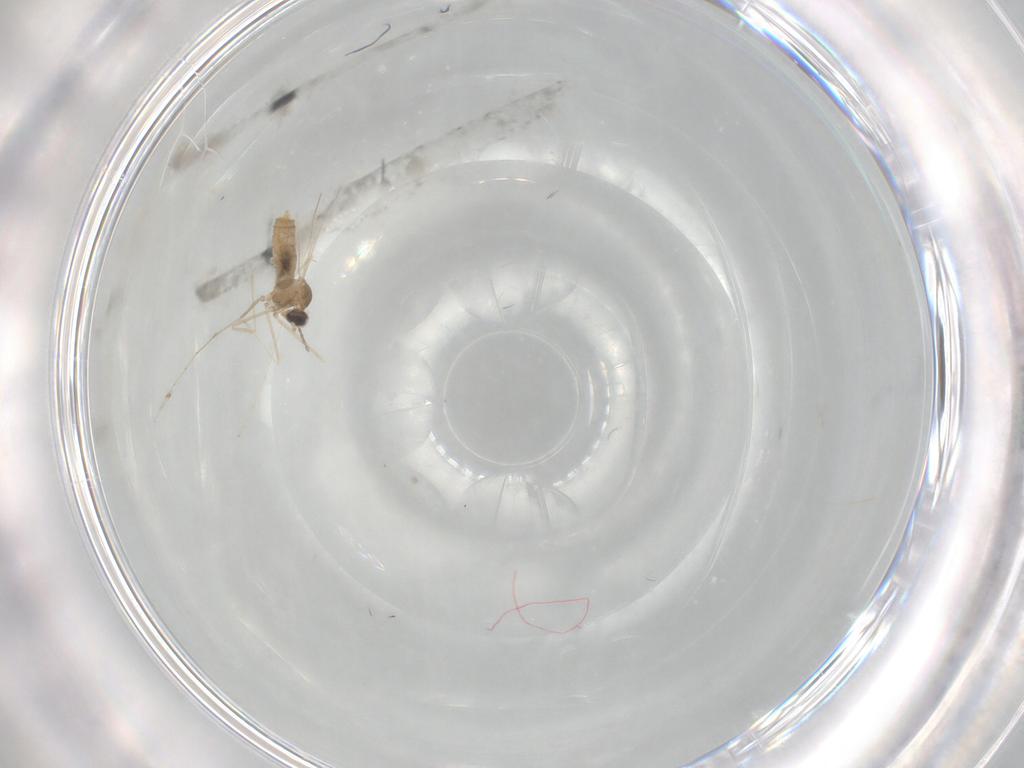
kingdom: Animalia
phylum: Arthropoda
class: Insecta
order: Diptera
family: Cecidomyiidae
